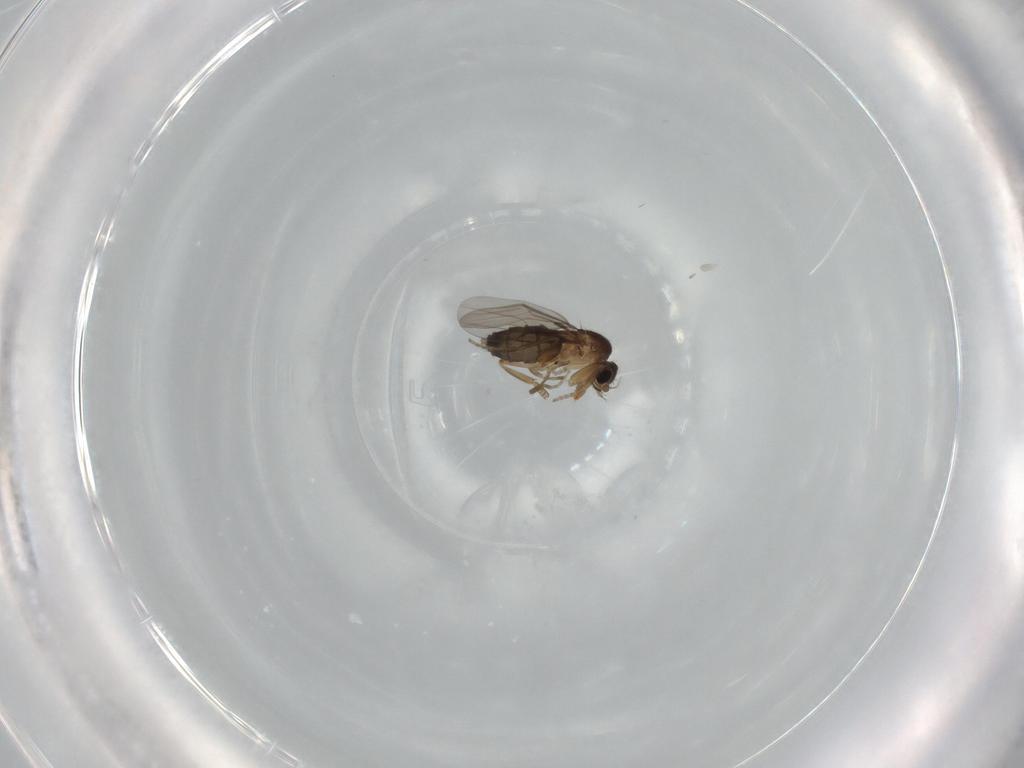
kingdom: Animalia
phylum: Arthropoda
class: Insecta
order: Diptera
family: Phoridae
